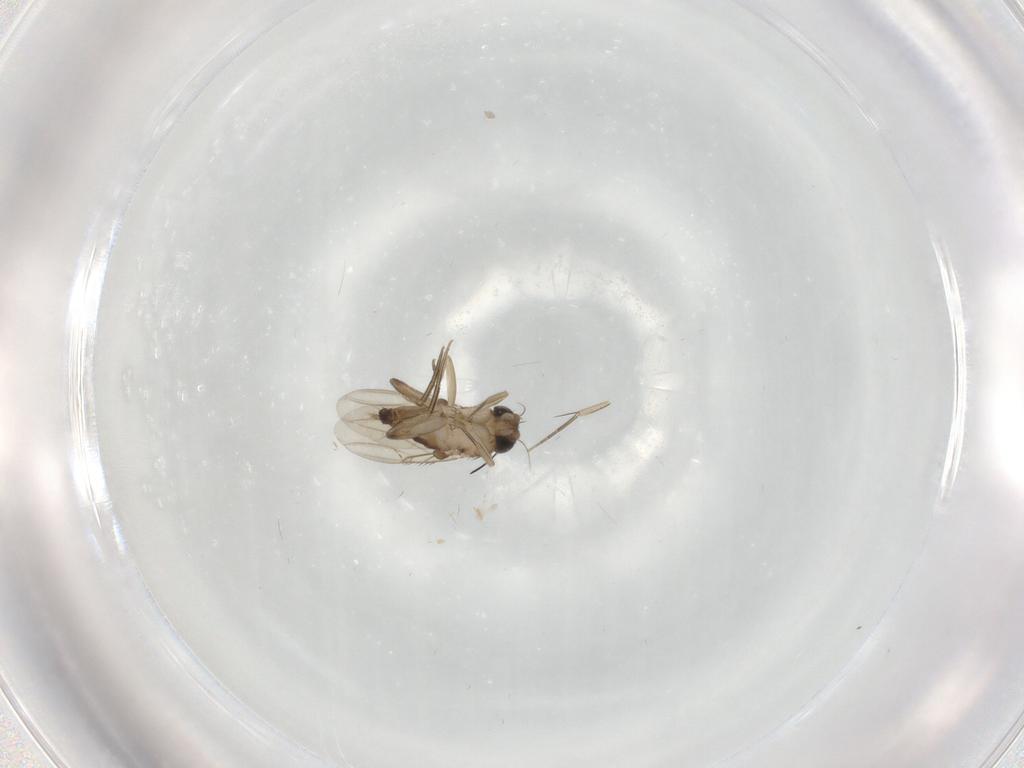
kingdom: Animalia
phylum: Arthropoda
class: Insecta
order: Diptera
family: Phoridae
